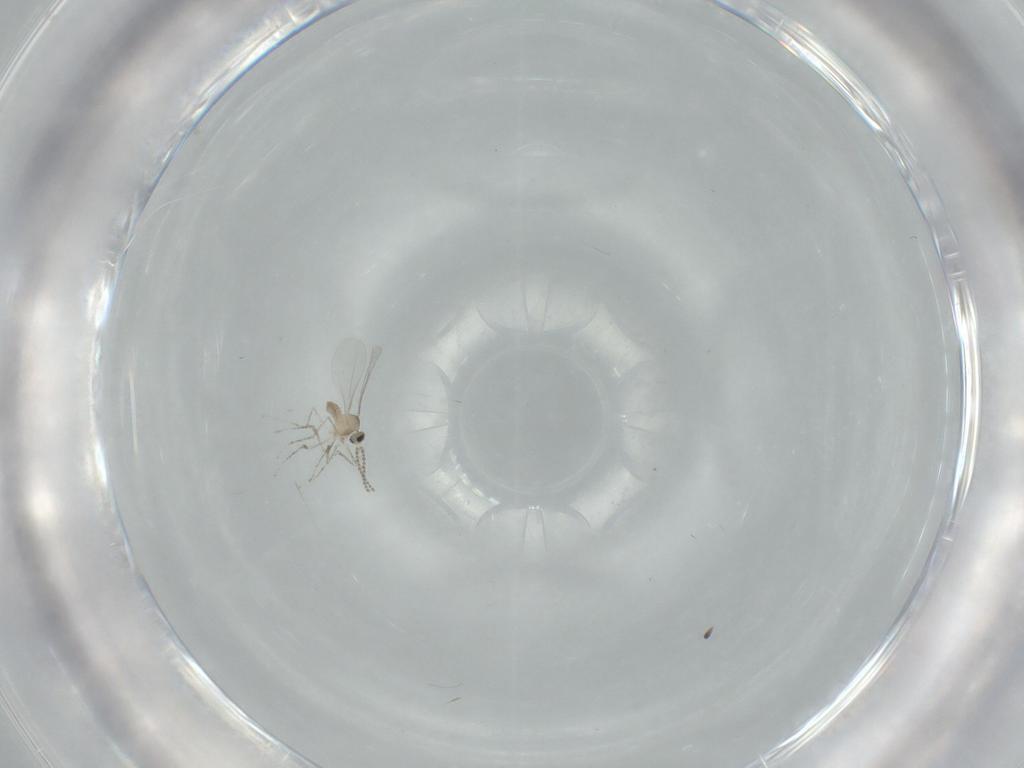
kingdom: Animalia
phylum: Arthropoda
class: Insecta
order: Diptera
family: Cecidomyiidae
